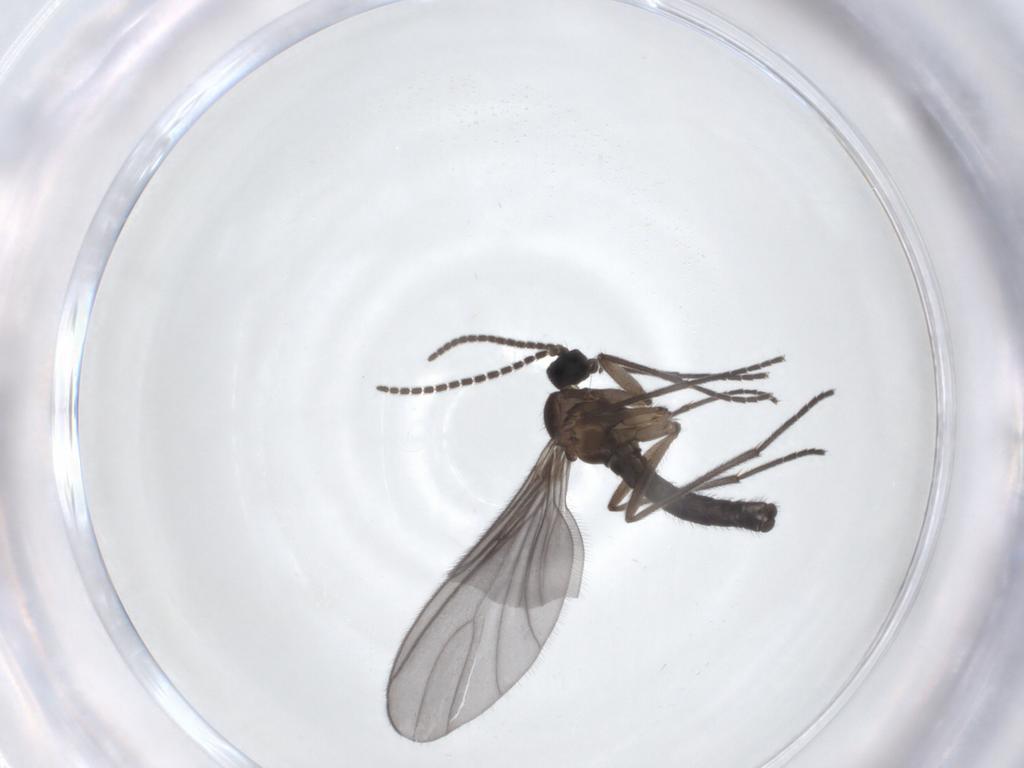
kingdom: Animalia
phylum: Arthropoda
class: Insecta
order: Diptera
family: Sciaridae
